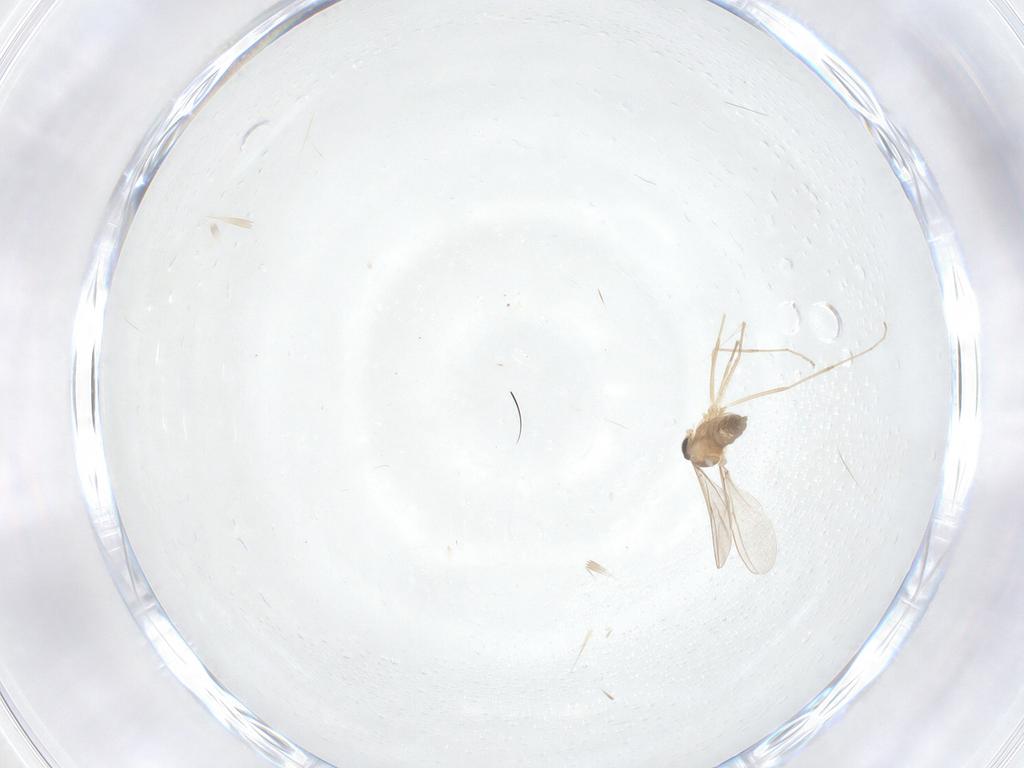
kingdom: Animalia
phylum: Arthropoda
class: Insecta
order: Diptera
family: Cecidomyiidae
